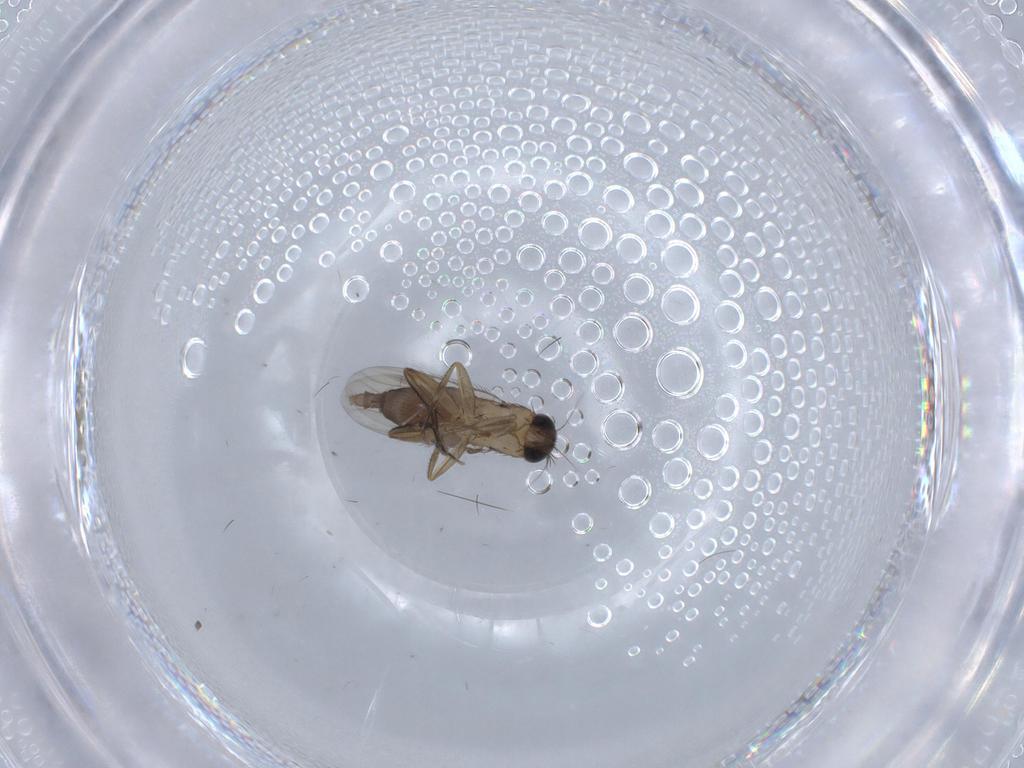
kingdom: Animalia
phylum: Arthropoda
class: Insecta
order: Diptera
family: Phoridae
